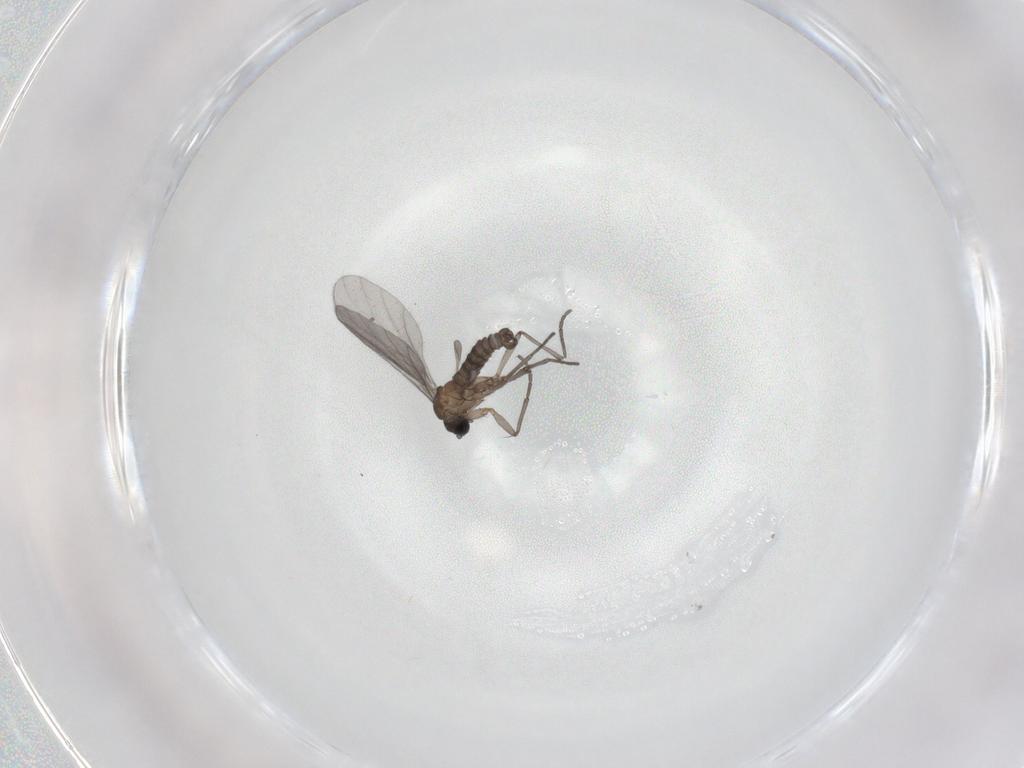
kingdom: Animalia
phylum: Arthropoda
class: Insecta
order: Diptera
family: Sciaridae
